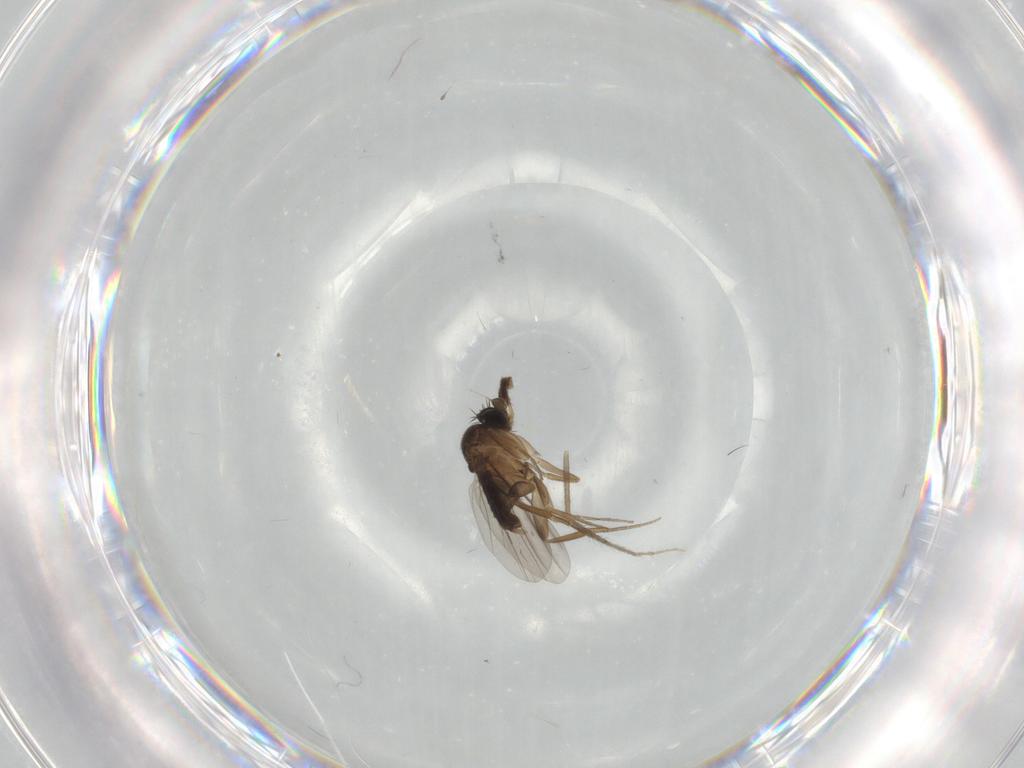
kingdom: Animalia
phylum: Arthropoda
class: Insecta
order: Diptera
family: Phoridae
